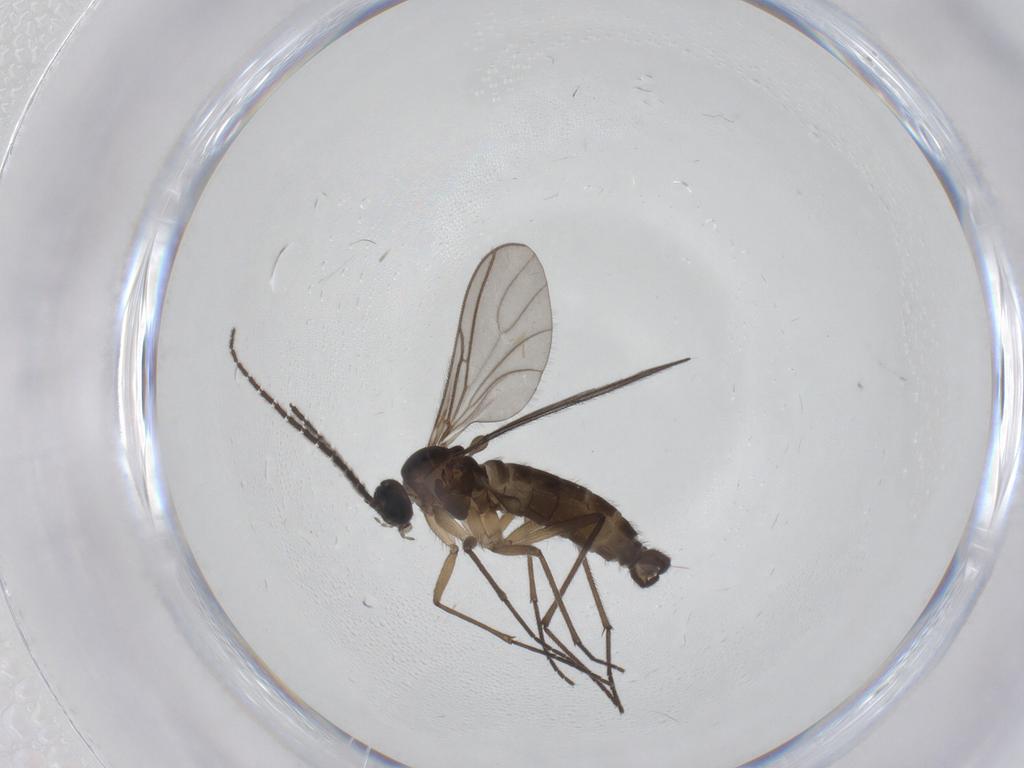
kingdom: Animalia
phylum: Arthropoda
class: Insecta
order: Diptera
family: Sciaridae
